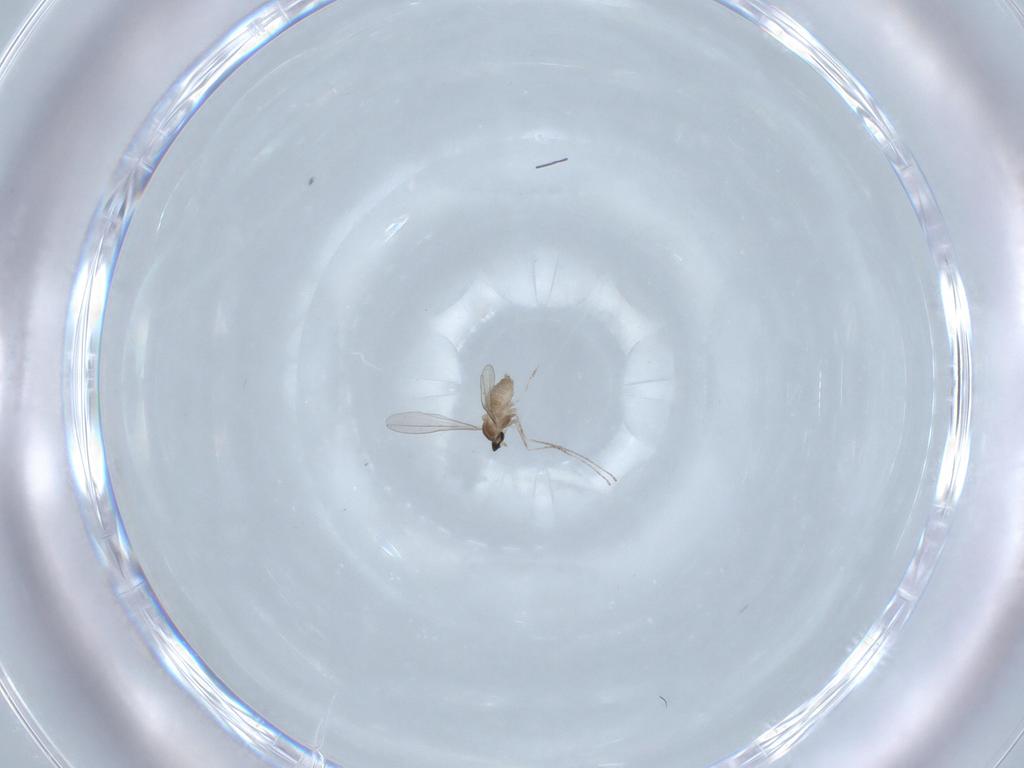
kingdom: Animalia
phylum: Arthropoda
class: Insecta
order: Diptera
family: Cecidomyiidae
